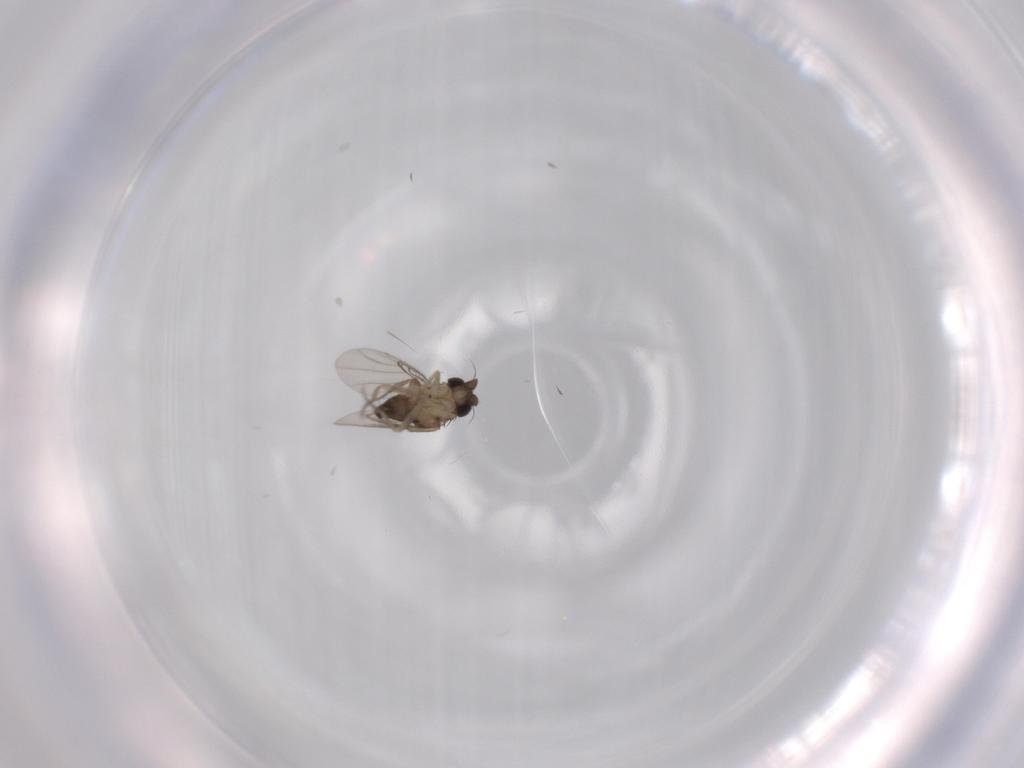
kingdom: Animalia
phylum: Arthropoda
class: Insecta
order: Diptera
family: Phoridae
